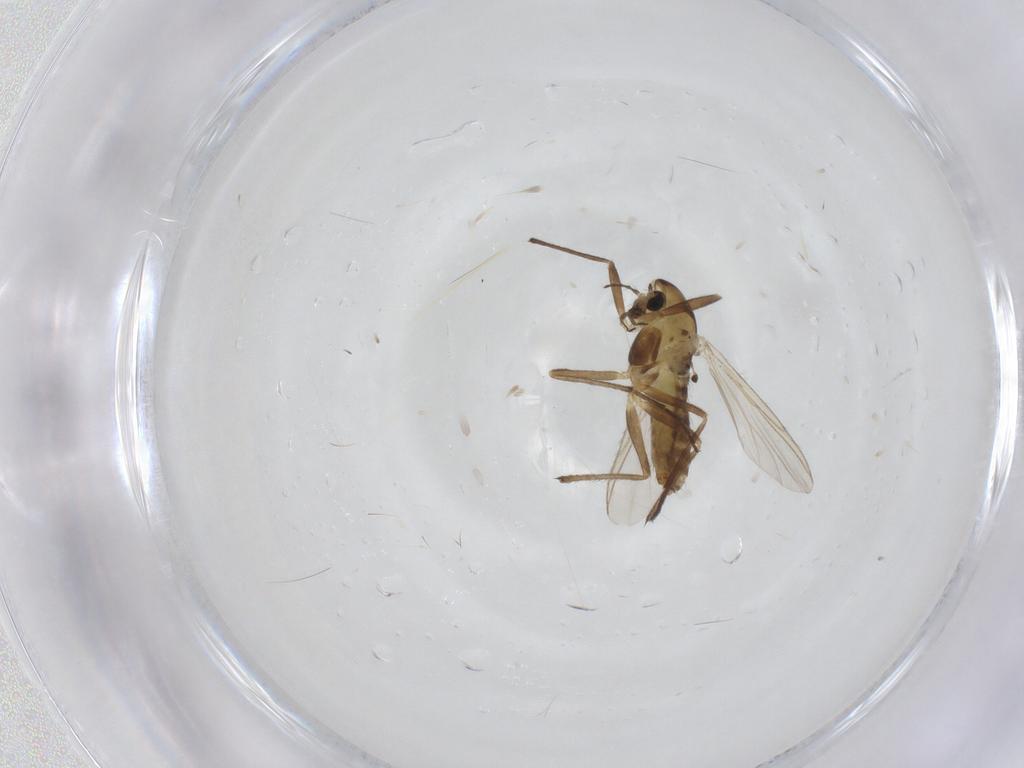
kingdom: Animalia
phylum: Arthropoda
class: Insecta
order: Diptera
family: Chironomidae
